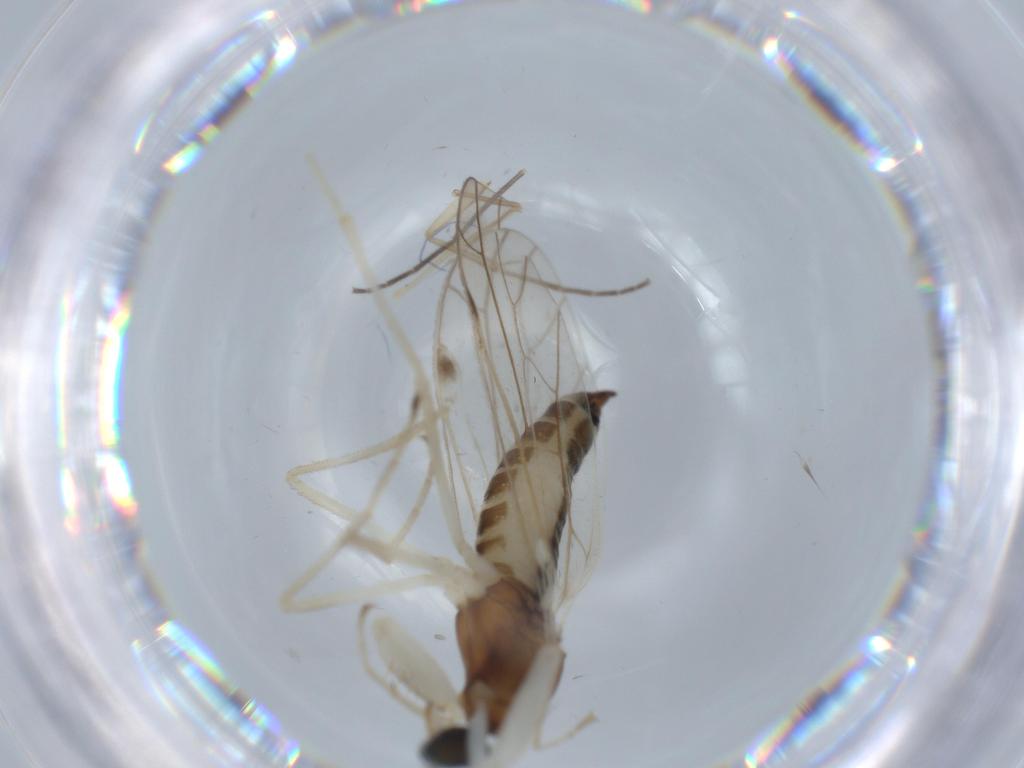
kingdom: Animalia
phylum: Arthropoda
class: Insecta
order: Diptera
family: Chironomidae
